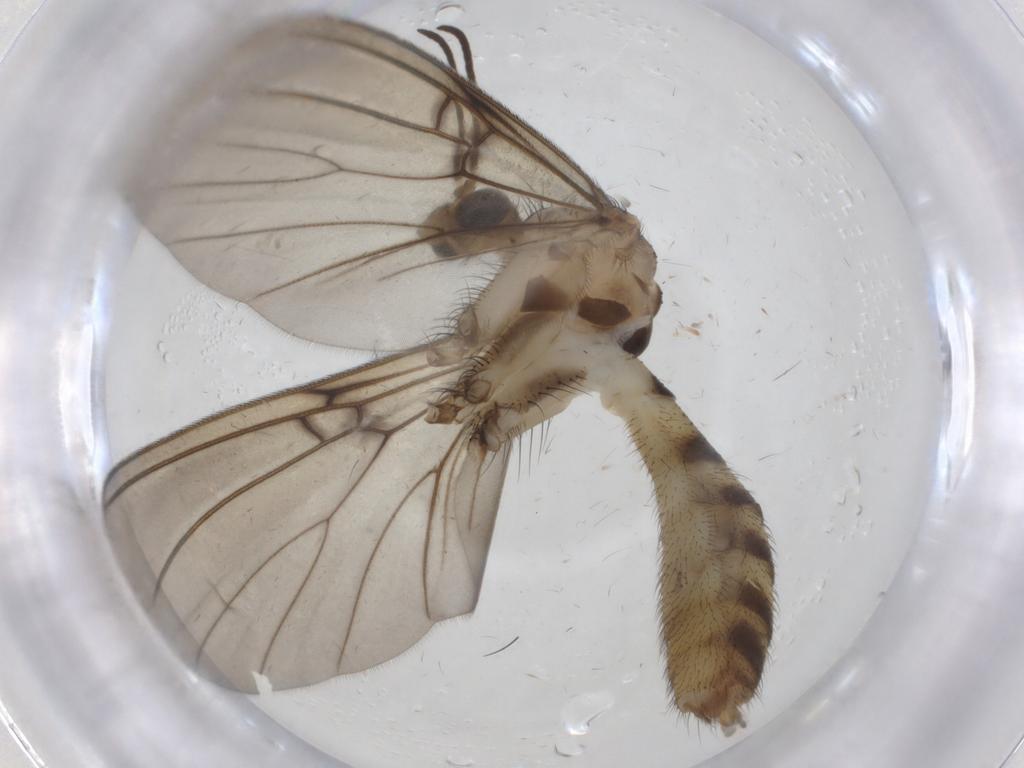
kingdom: Animalia
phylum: Arthropoda
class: Insecta
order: Diptera
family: Mycetophilidae
